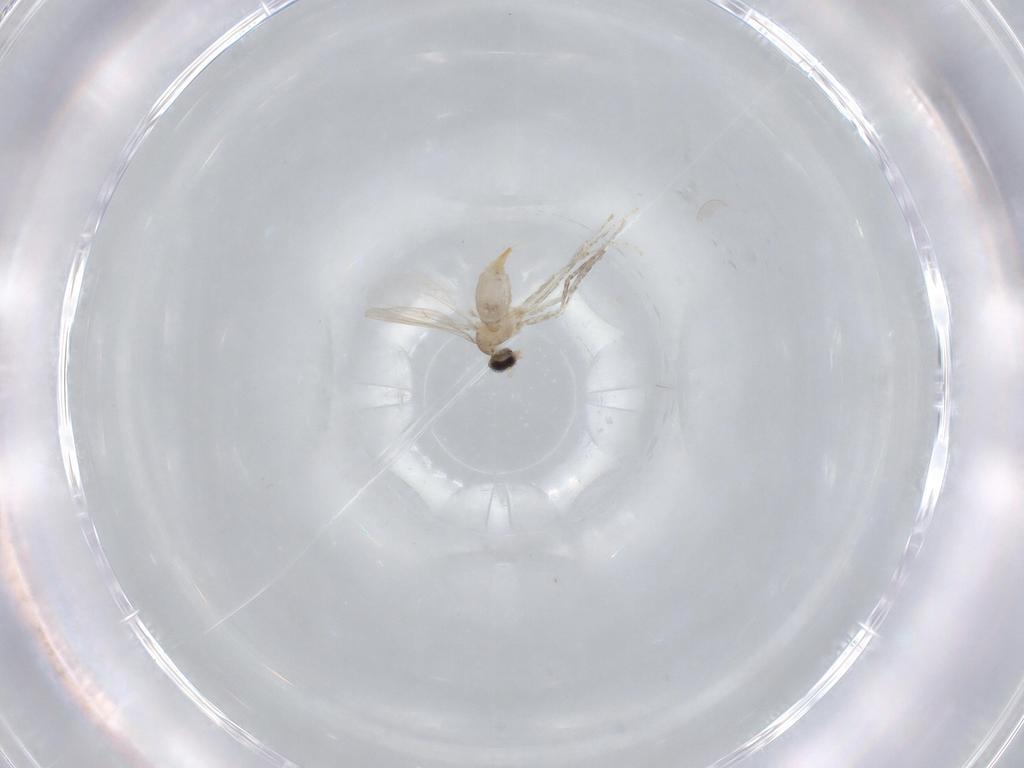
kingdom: Animalia
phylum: Arthropoda
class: Insecta
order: Diptera
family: Cecidomyiidae
